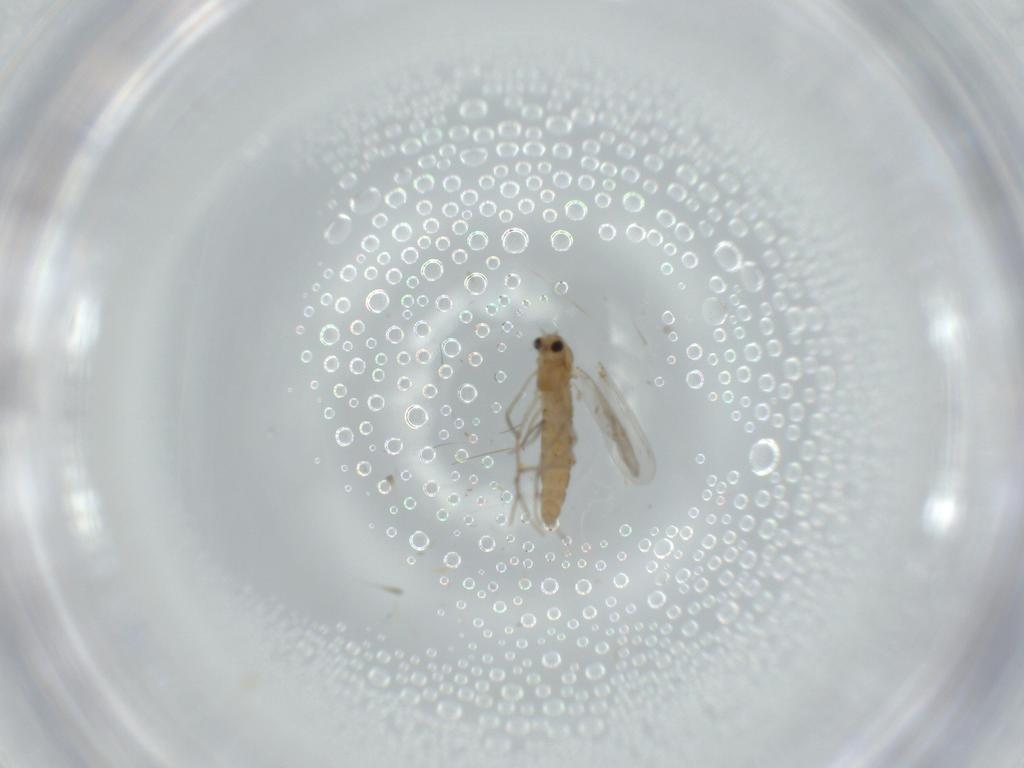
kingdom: Animalia
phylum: Arthropoda
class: Insecta
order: Diptera
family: Chironomidae
